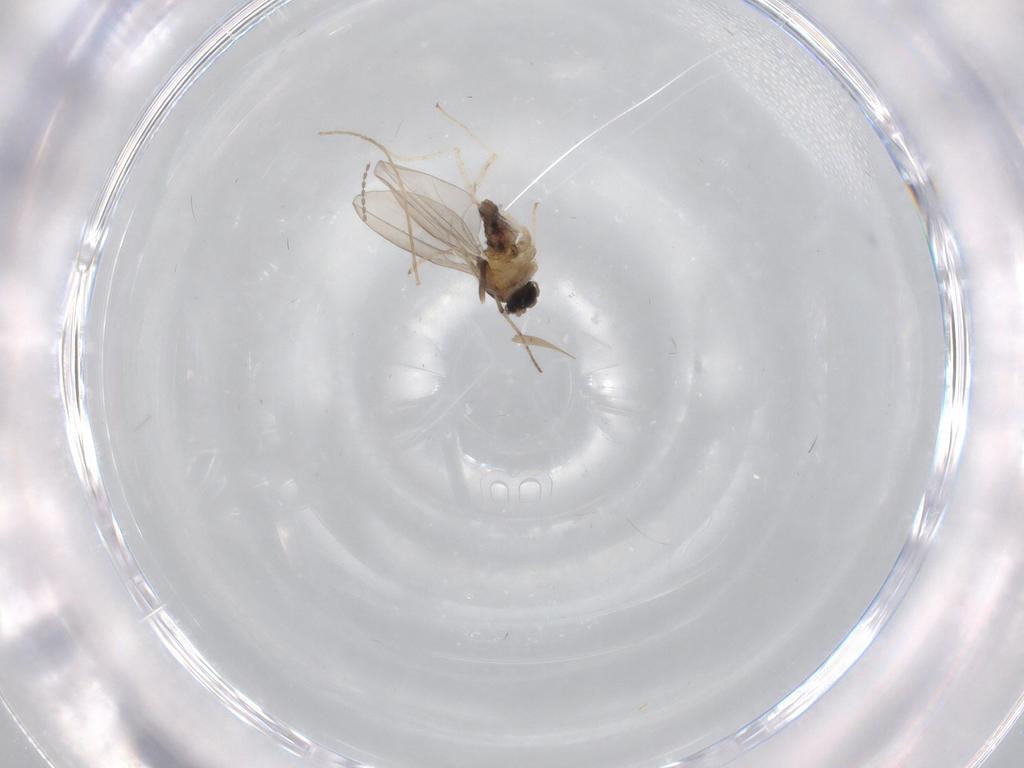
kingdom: Animalia
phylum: Arthropoda
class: Insecta
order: Diptera
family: Cecidomyiidae
